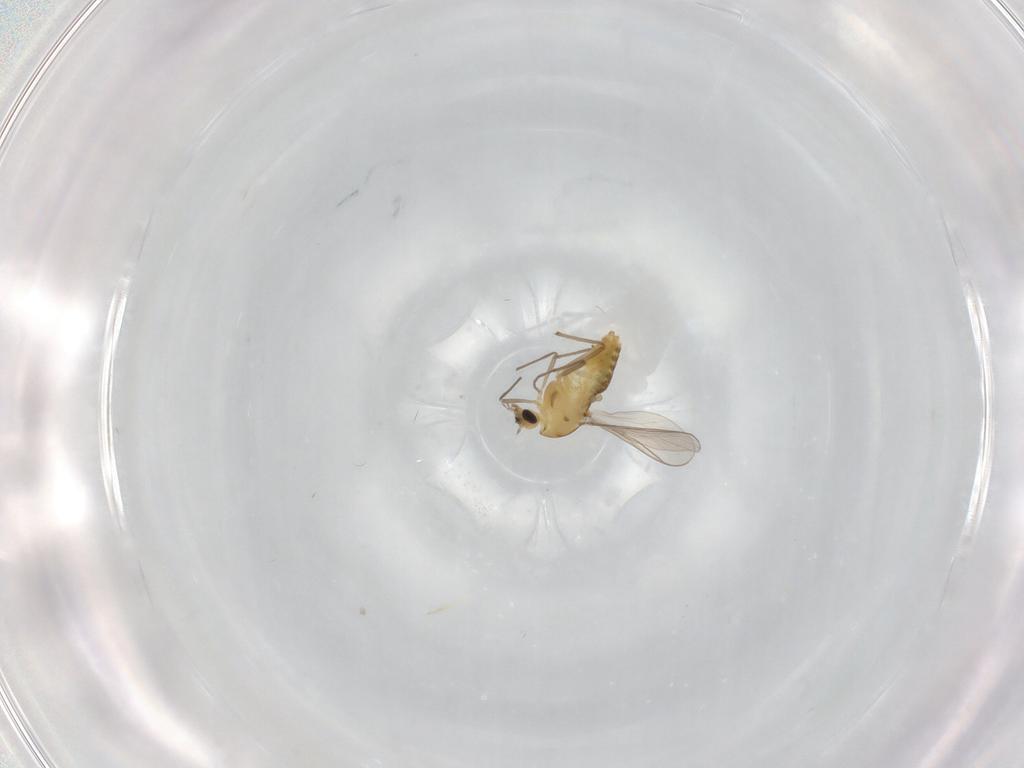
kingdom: Animalia
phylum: Arthropoda
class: Insecta
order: Diptera
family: Chironomidae
